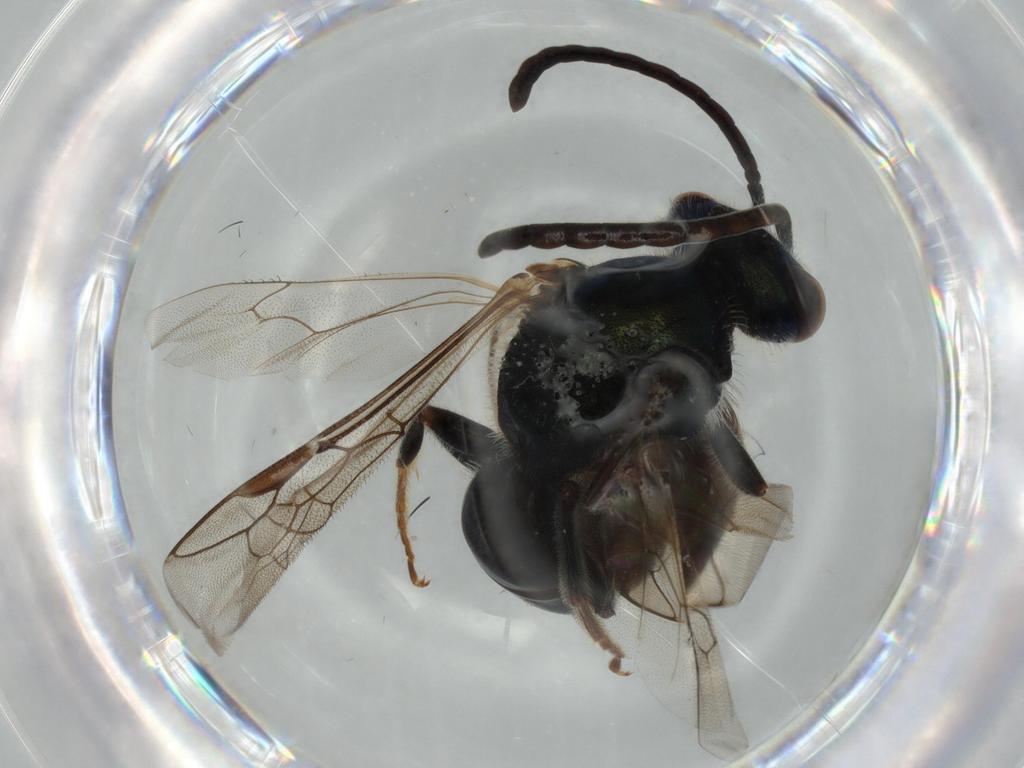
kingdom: Animalia
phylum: Arthropoda
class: Insecta
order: Hymenoptera
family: Halictidae
